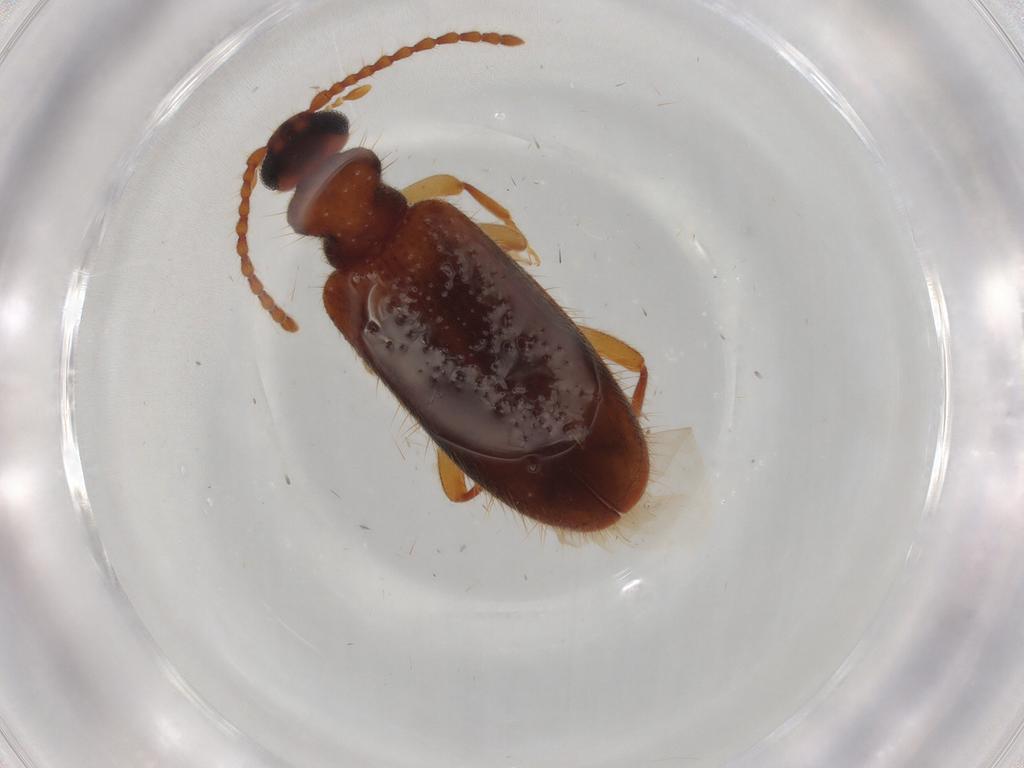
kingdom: Animalia
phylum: Arthropoda
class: Insecta
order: Coleoptera
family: Anthicidae
